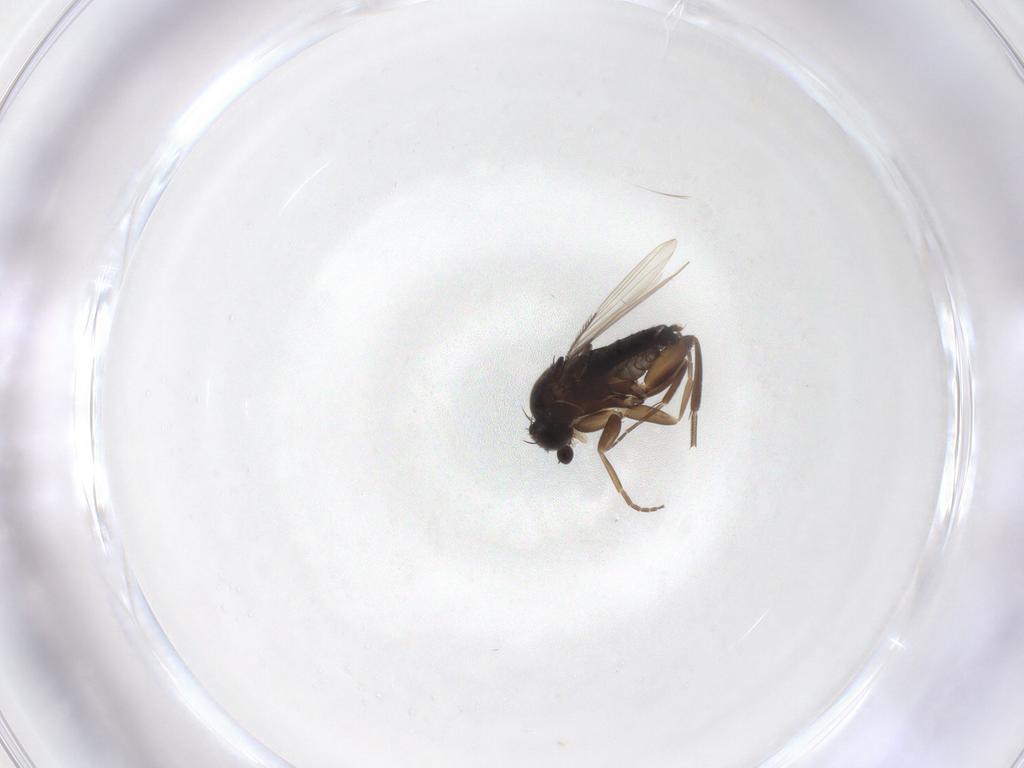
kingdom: Animalia
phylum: Arthropoda
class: Insecta
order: Diptera
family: Phoridae
